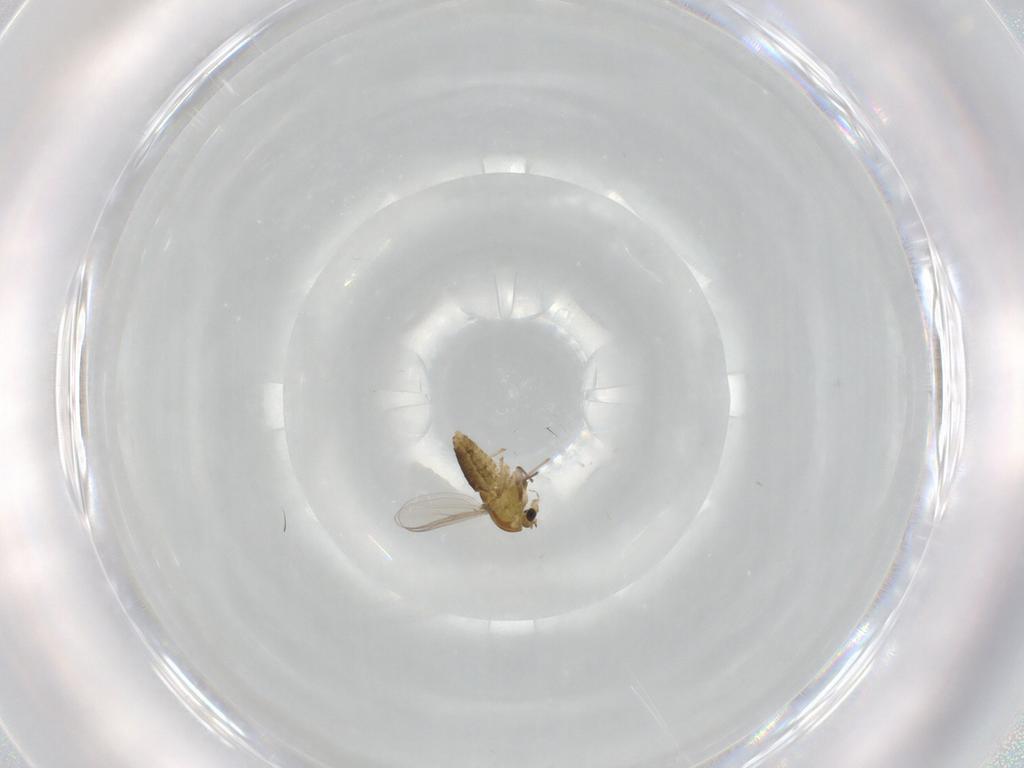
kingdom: Animalia
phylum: Arthropoda
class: Insecta
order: Diptera
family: Chironomidae
